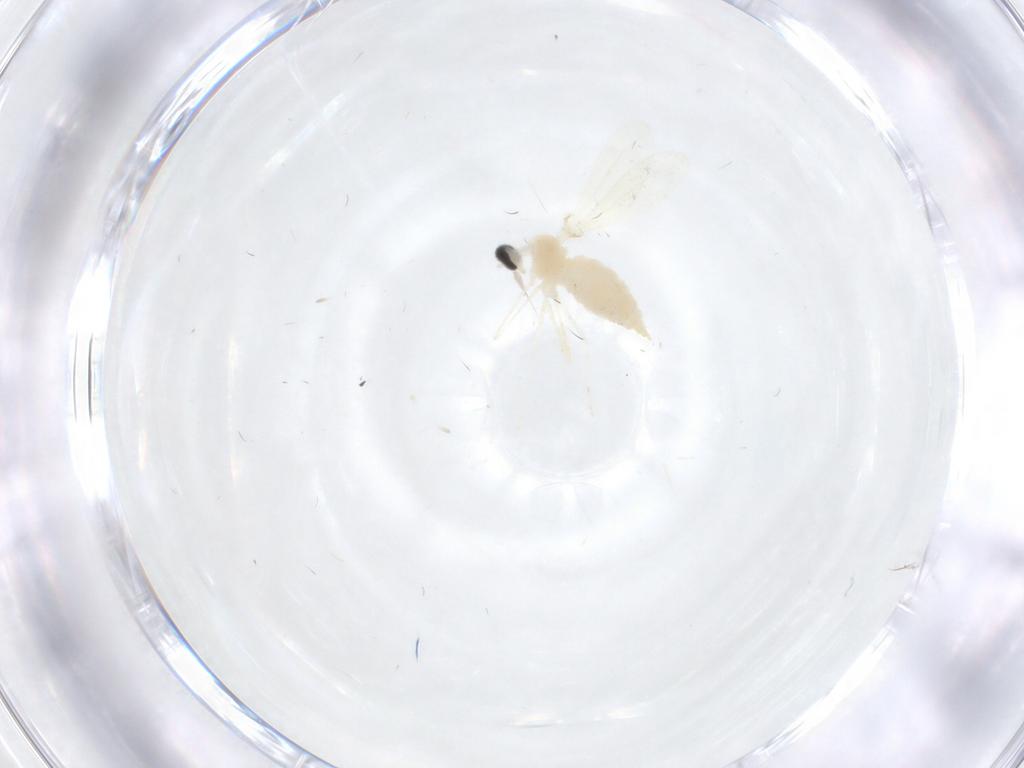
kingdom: Animalia
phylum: Arthropoda
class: Insecta
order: Diptera
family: Cecidomyiidae
